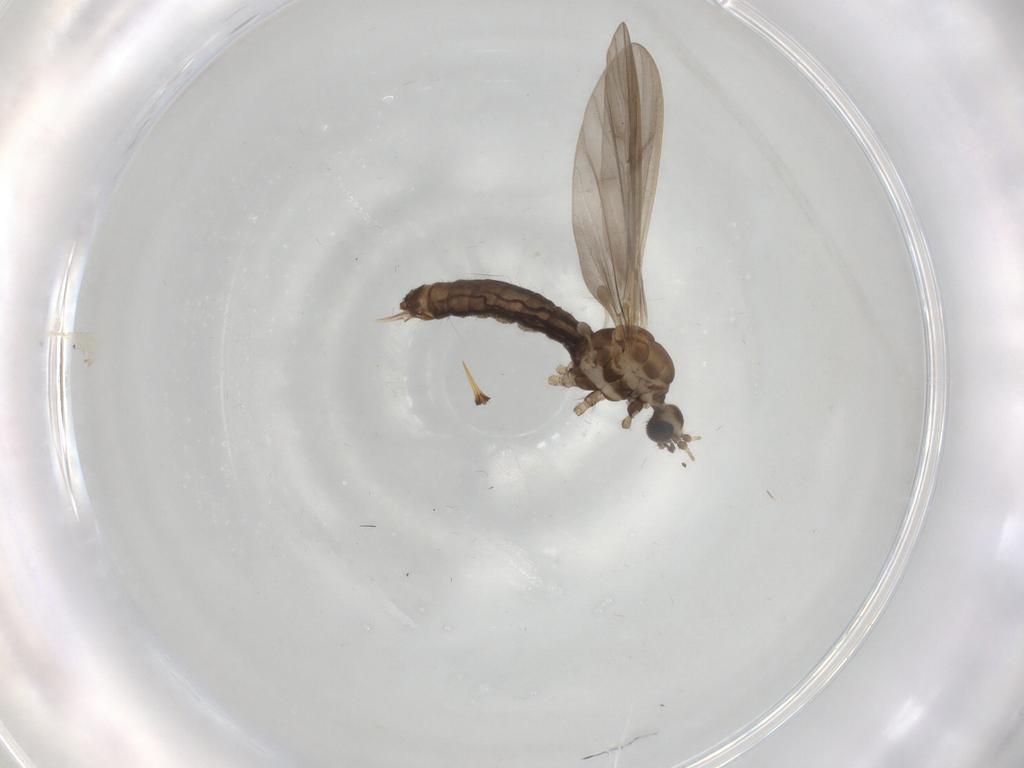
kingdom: Animalia
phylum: Arthropoda
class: Insecta
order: Diptera
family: Limoniidae
